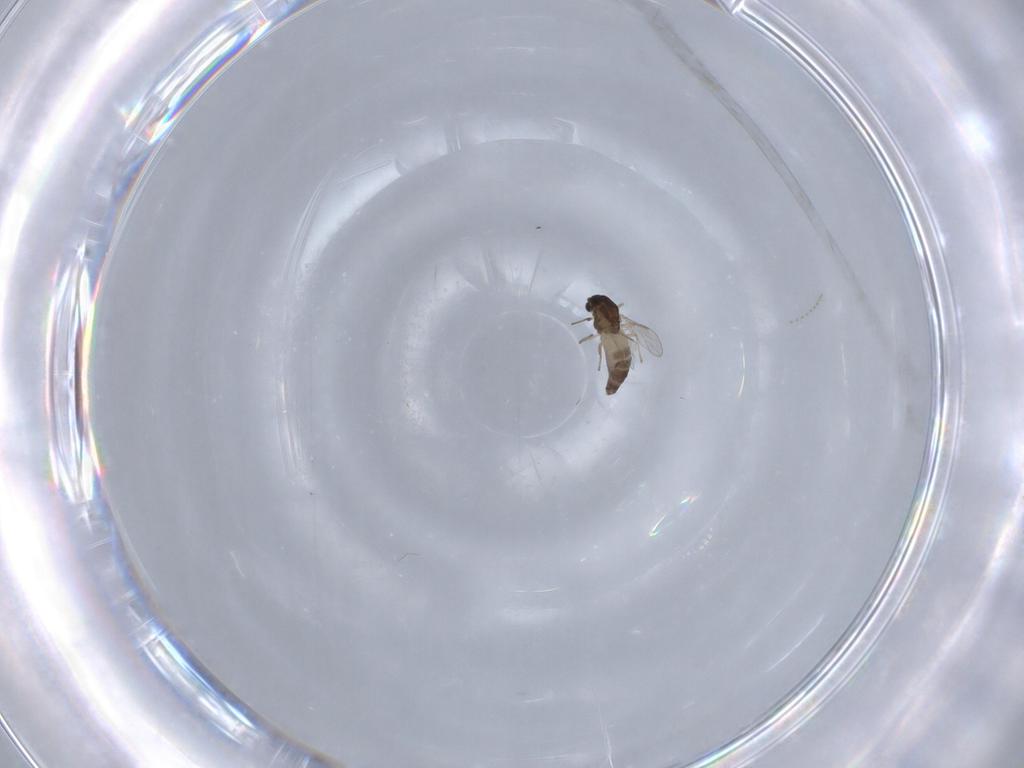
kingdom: Animalia
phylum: Arthropoda
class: Insecta
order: Diptera
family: Chironomidae
